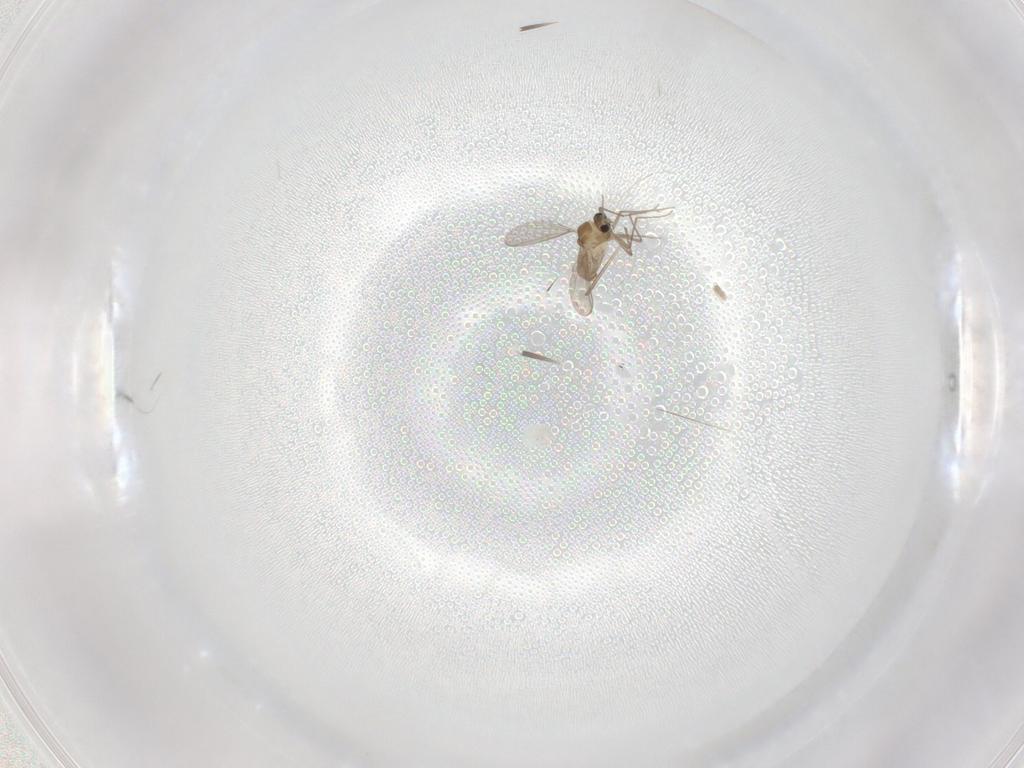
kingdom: Animalia
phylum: Arthropoda
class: Insecta
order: Diptera
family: Chironomidae
